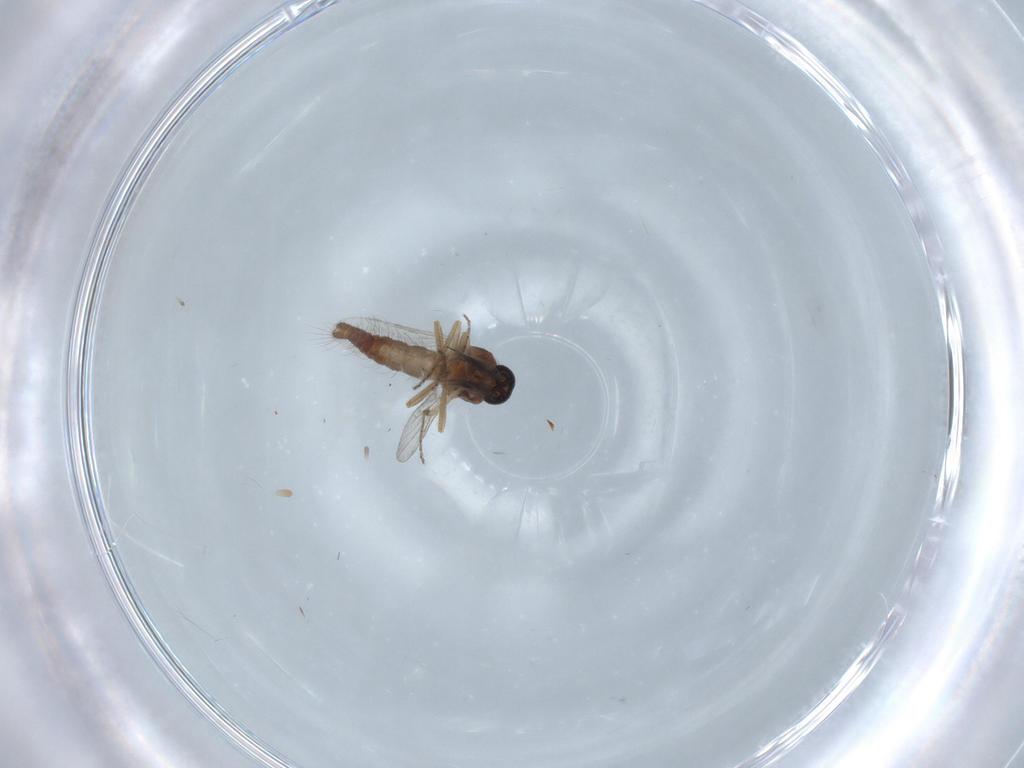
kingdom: Animalia
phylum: Arthropoda
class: Insecta
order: Diptera
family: Ceratopogonidae
